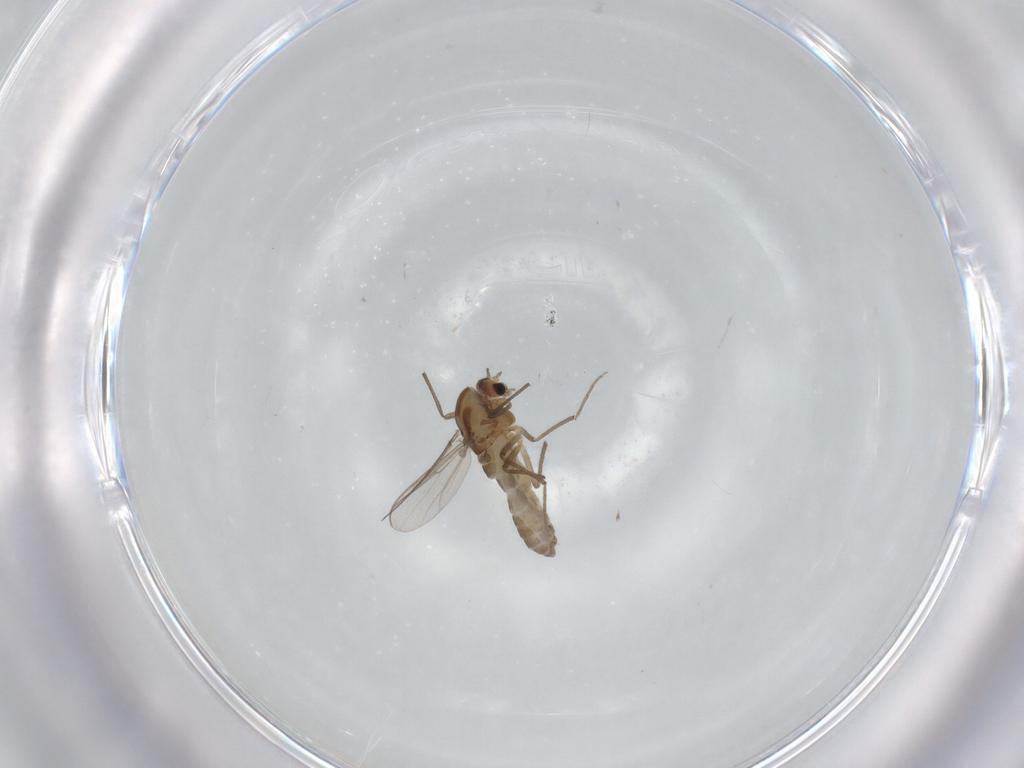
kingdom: Animalia
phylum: Arthropoda
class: Insecta
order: Diptera
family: Chironomidae
